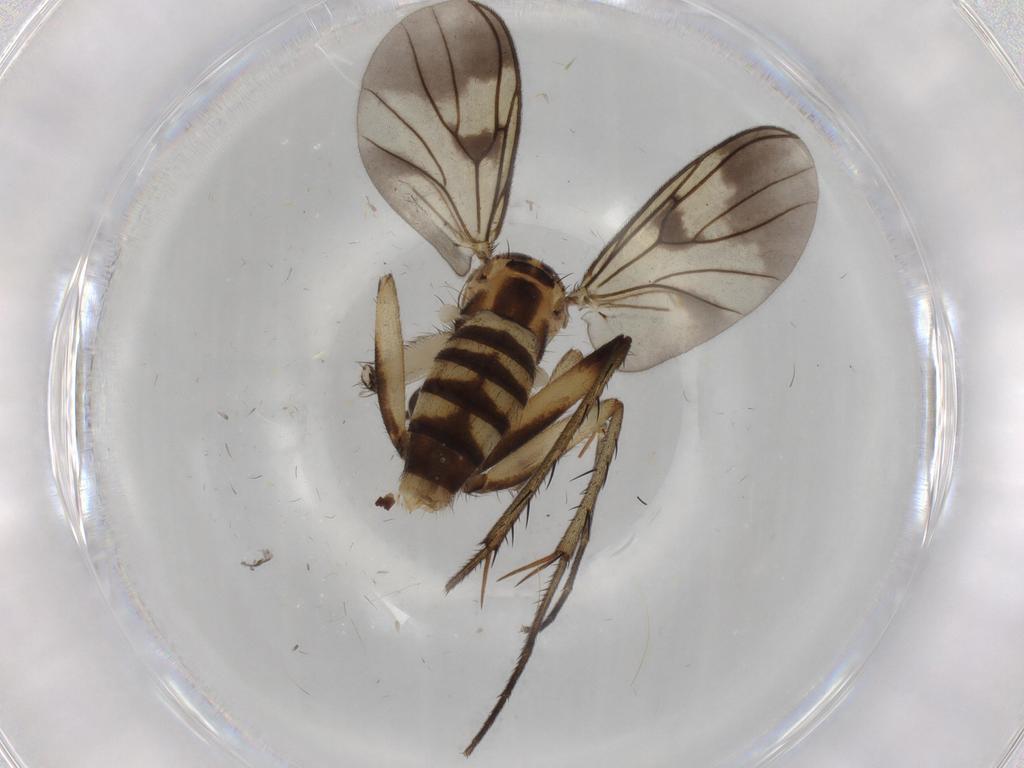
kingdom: Animalia
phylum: Arthropoda
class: Insecta
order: Diptera
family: Mycetophilidae
